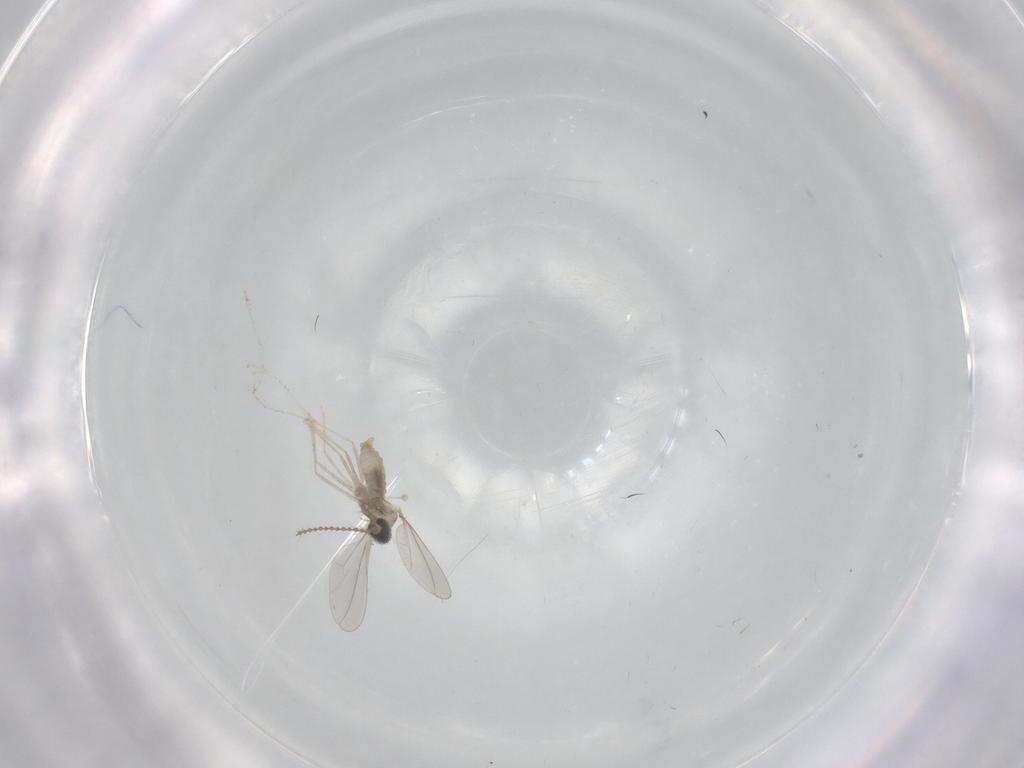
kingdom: Animalia
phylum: Arthropoda
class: Insecta
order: Diptera
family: Cecidomyiidae
